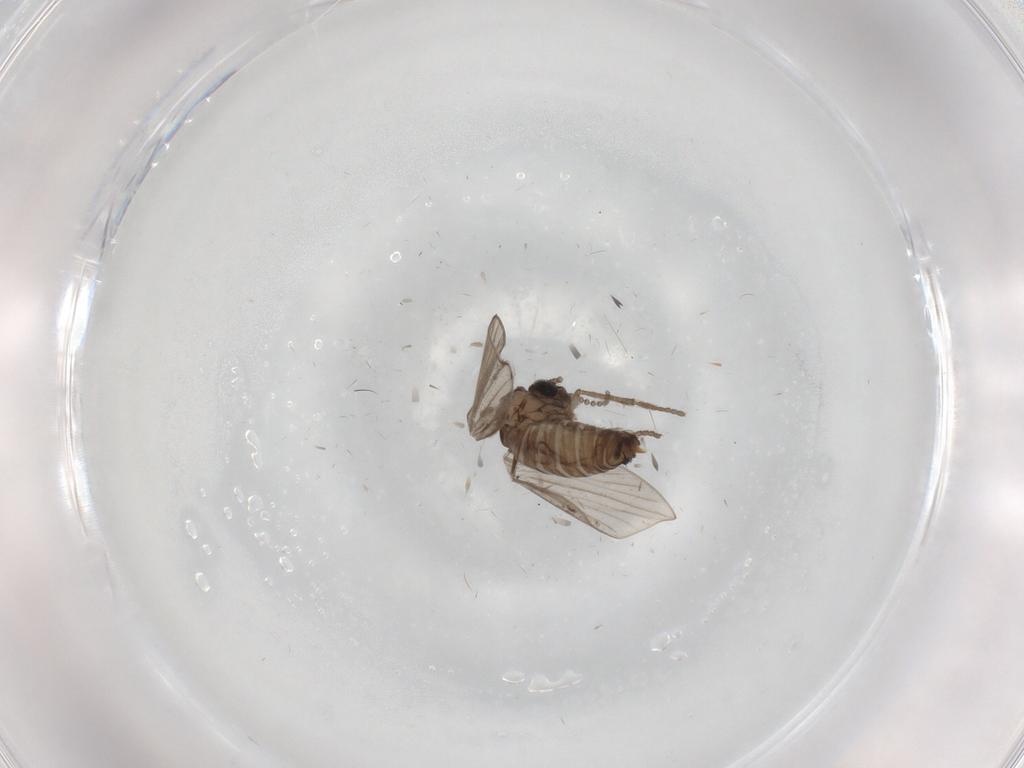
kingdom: Animalia
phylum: Arthropoda
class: Insecta
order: Diptera
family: Psychodidae
